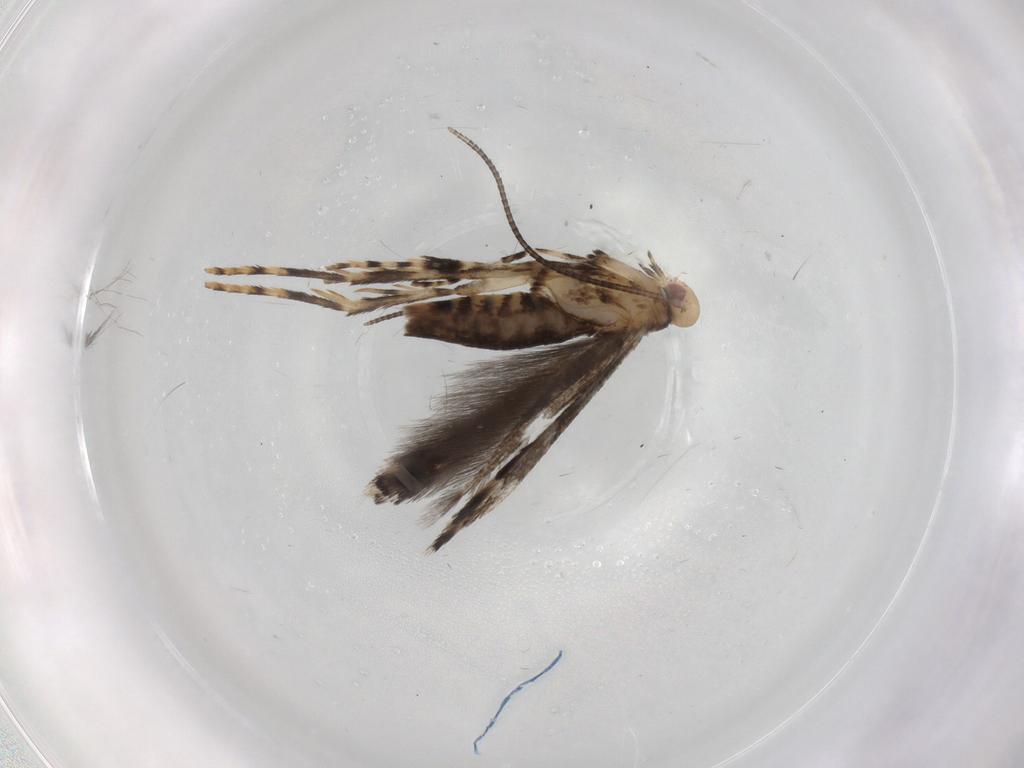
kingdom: Animalia
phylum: Arthropoda
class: Insecta
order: Lepidoptera
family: Gracillariidae
